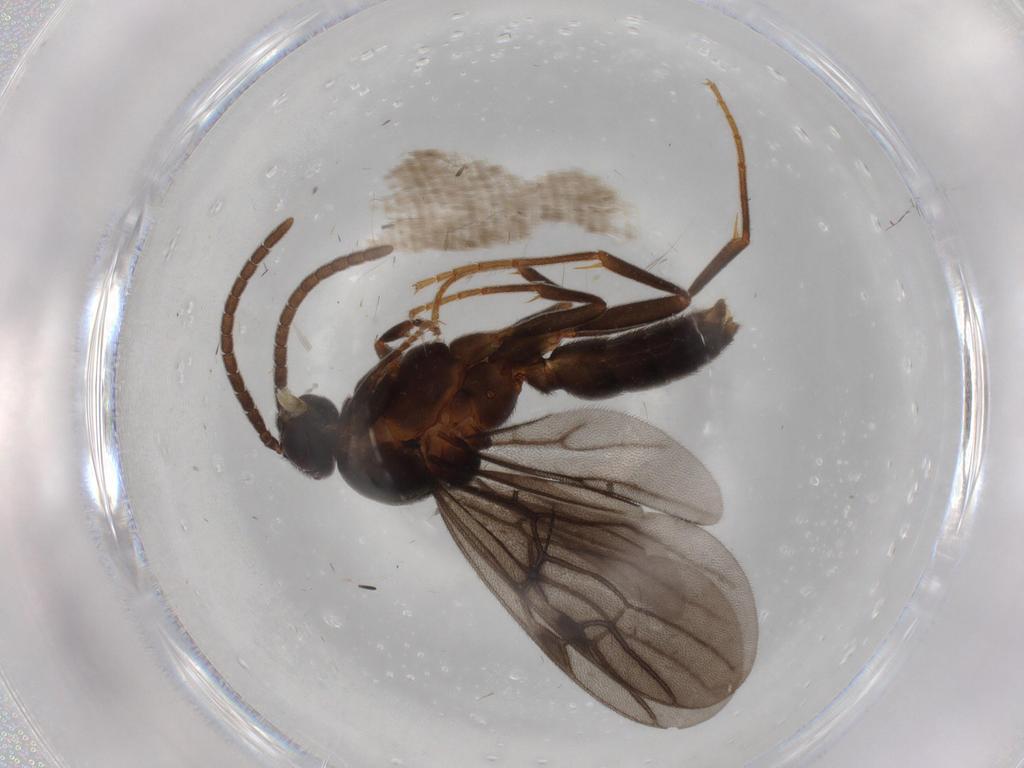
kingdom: Animalia
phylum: Arthropoda
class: Insecta
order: Hymenoptera
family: Formicidae
